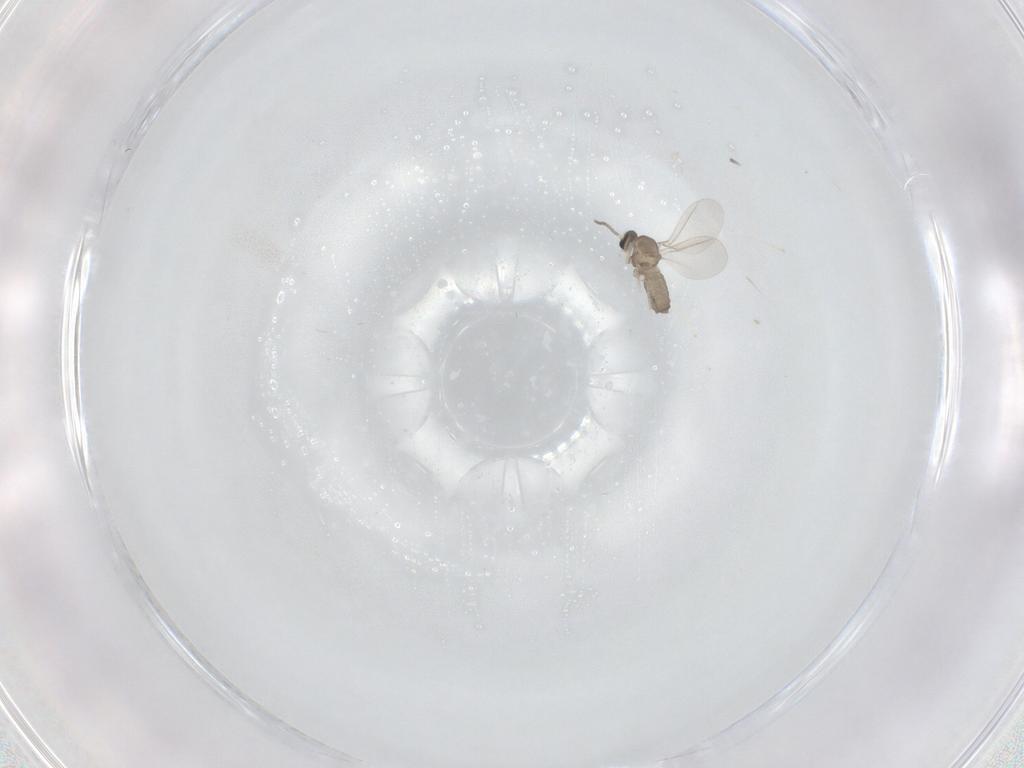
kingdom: Animalia
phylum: Arthropoda
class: Insecta
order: Diptera
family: Cecidomyiidae
